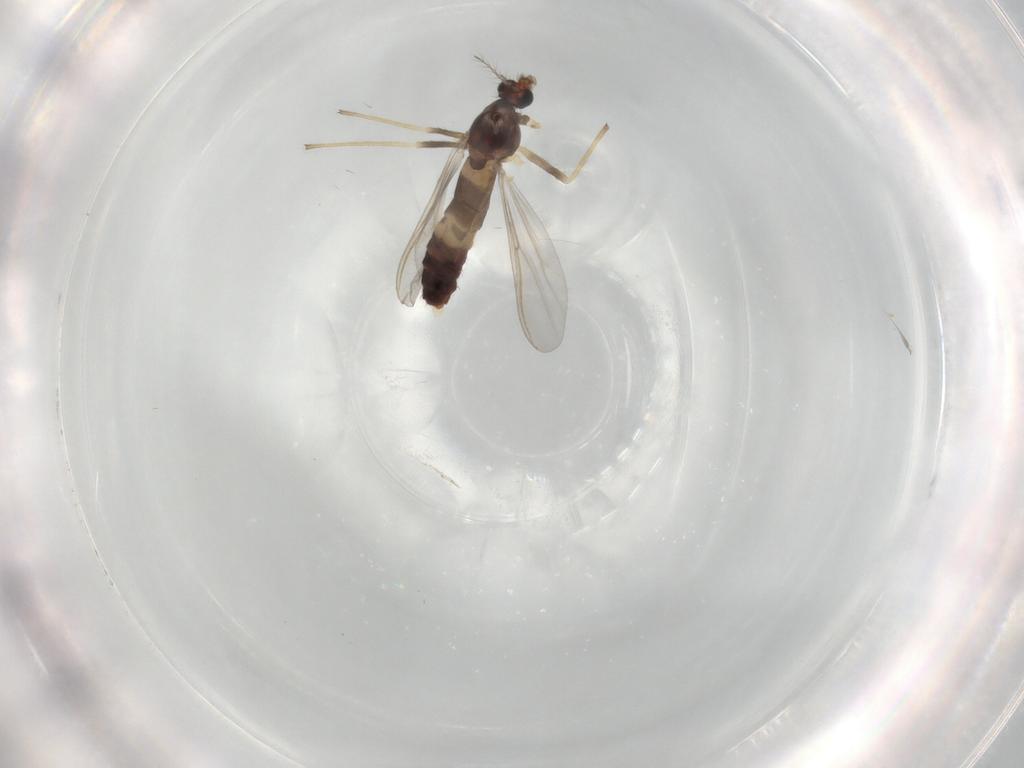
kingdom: Animalia
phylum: Arthropoda
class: Insecta
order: Diptera
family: Chironomidae
